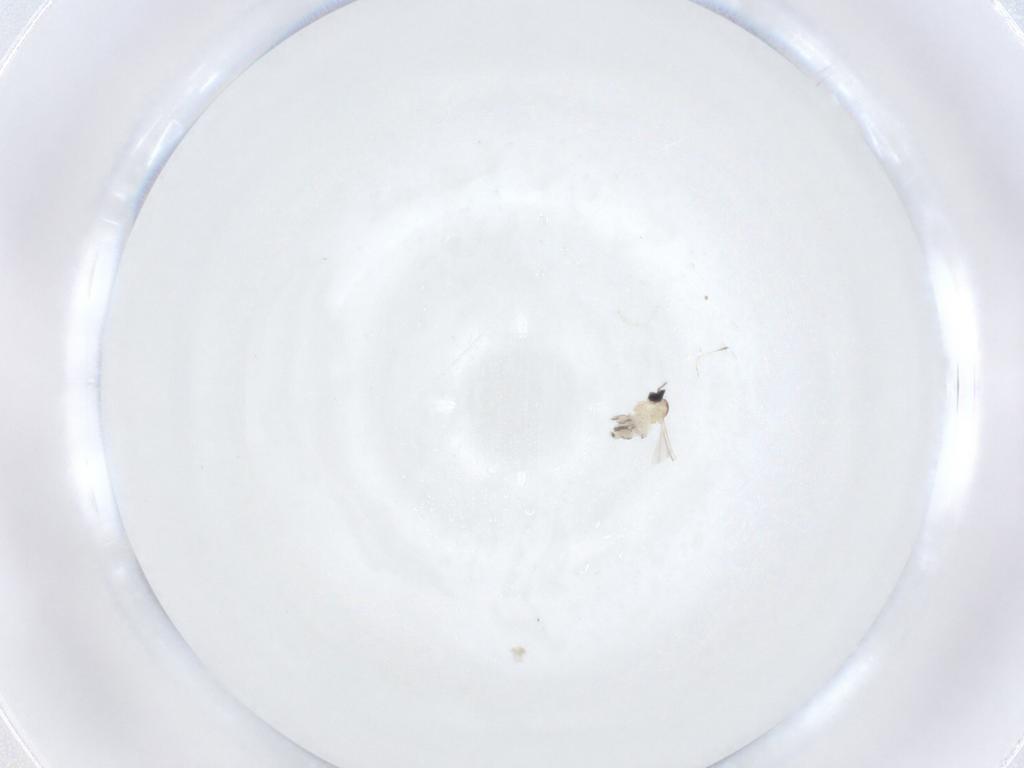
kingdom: Animalia
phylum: Arthropoda
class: Insecta
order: Diptera
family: Cecidomyiidae
